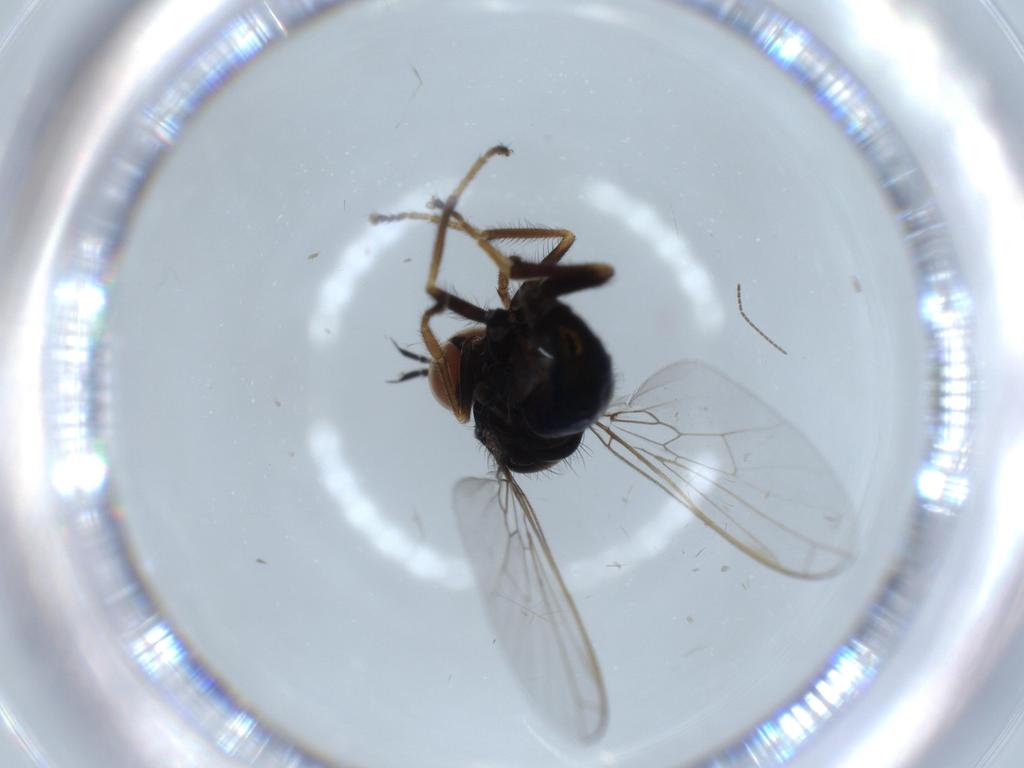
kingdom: Animalia
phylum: Arthropoda
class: Insecta
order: Diptera
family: Empididae
